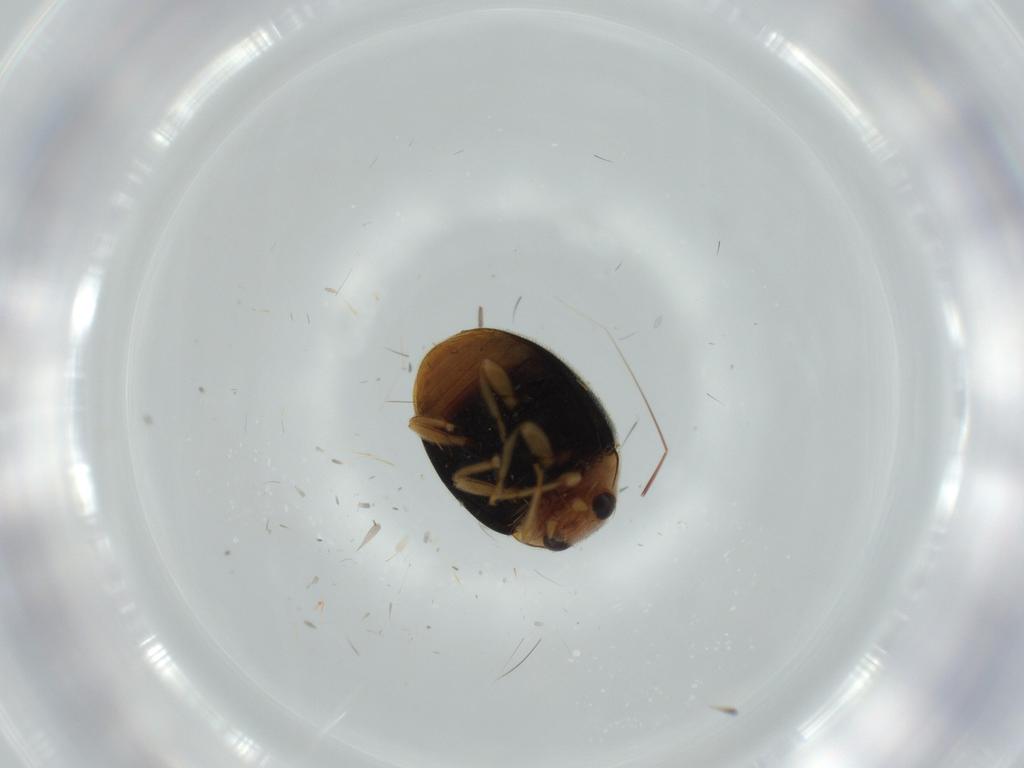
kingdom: Animalia
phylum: Arthropoda
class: Insecta
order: Coleoptera
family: Coccinellidae
